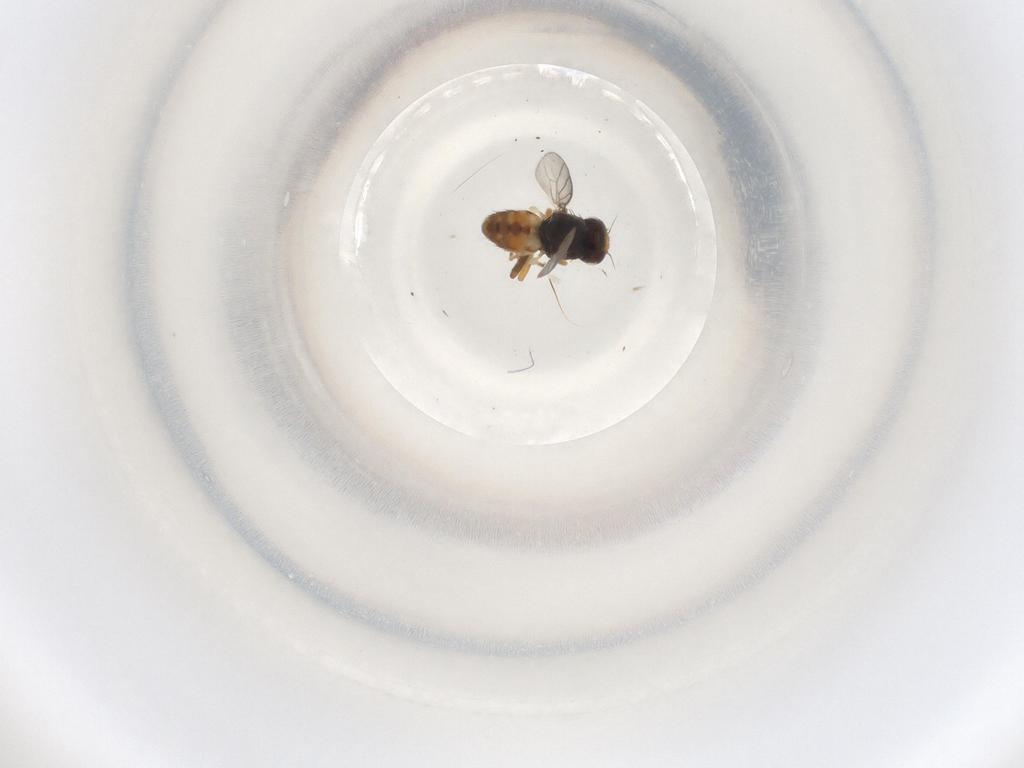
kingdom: Animalia
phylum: Arthropoda
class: Insecta
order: Diptera
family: Chloropidae
